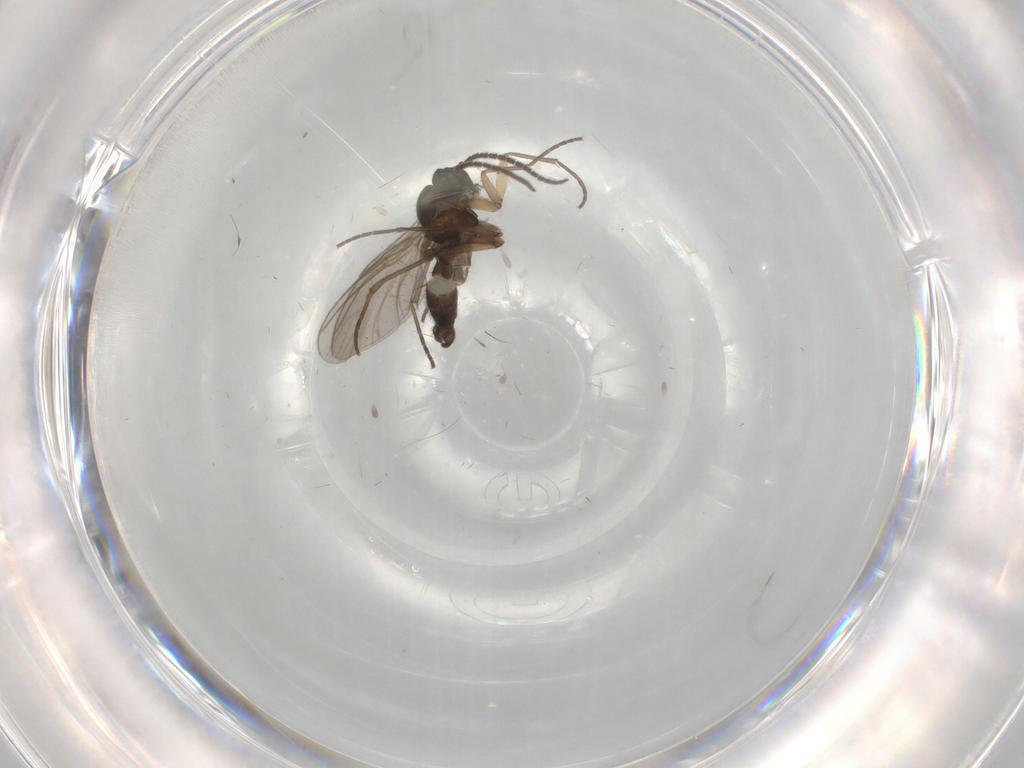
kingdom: Animalia
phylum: Arthropoda
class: Insecta
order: Diptera
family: Sciaridae
